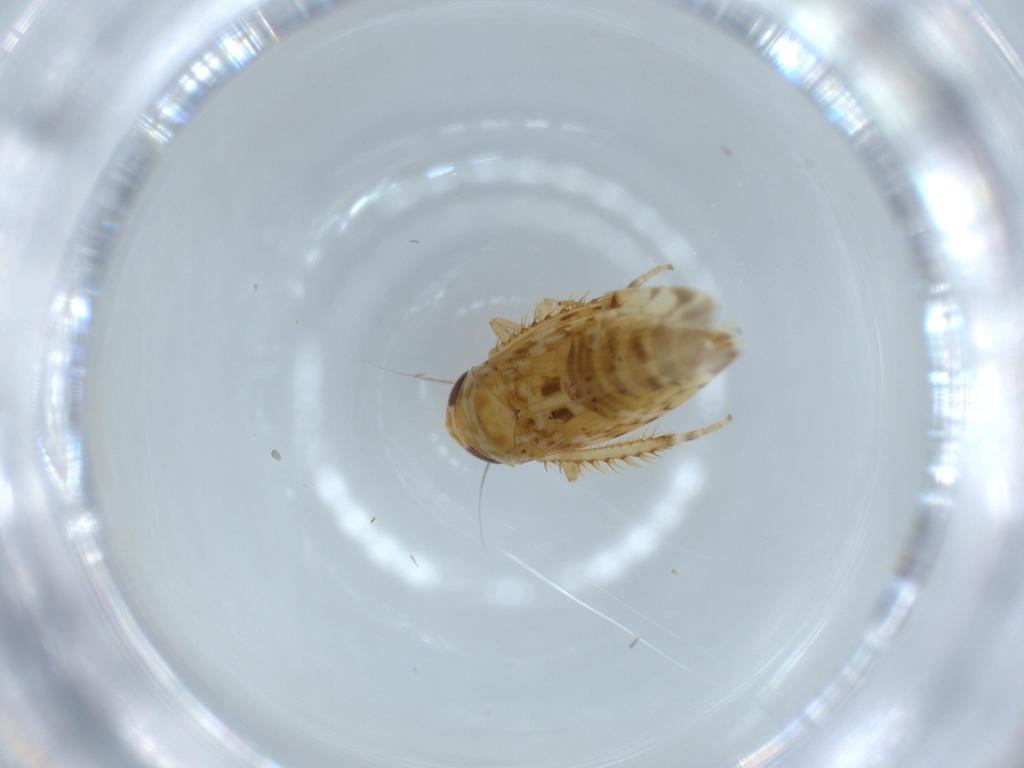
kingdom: Animalia
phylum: Arthropoda
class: Insecta
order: Hemiptera
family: Cicadellidae
